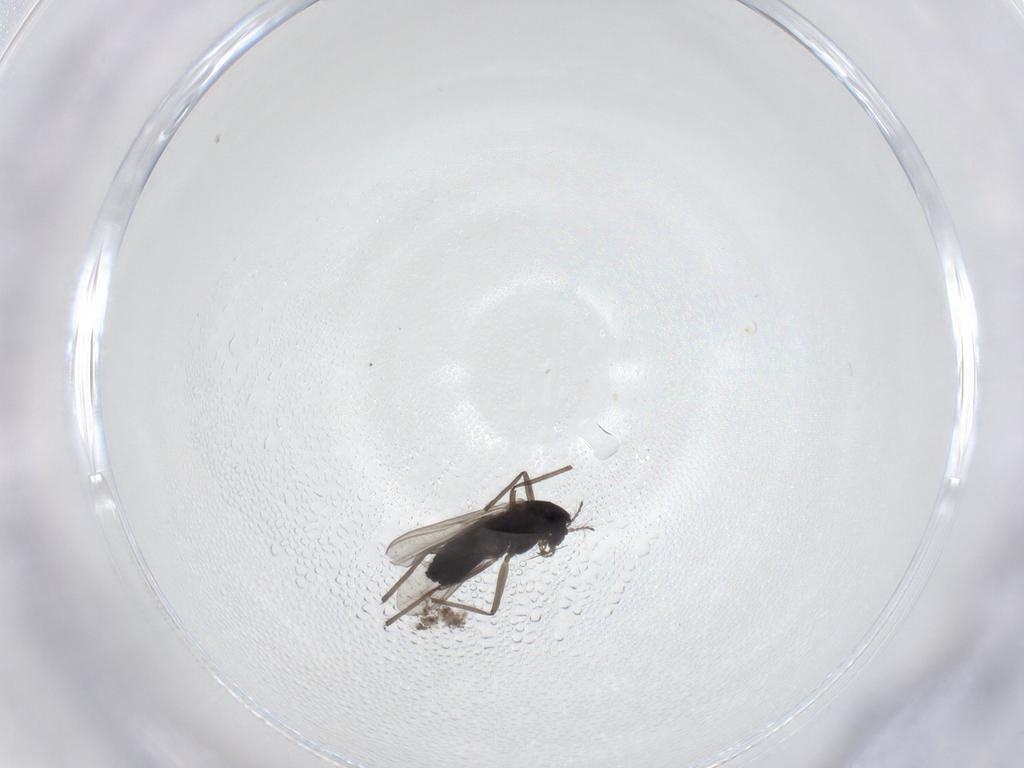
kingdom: Animalia
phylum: Arthropoda
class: Insecta
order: Diptera
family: Chironomidae
